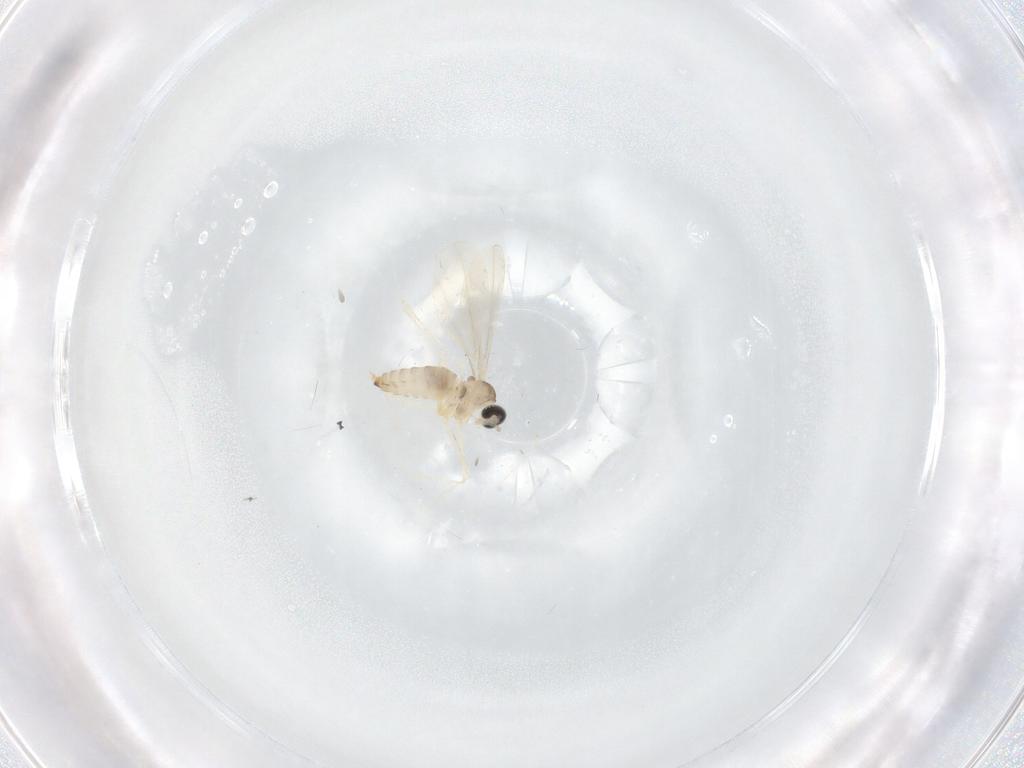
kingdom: Animalia
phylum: Arthropoda
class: Insecta
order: Diptera
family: Cecidomyiidae
